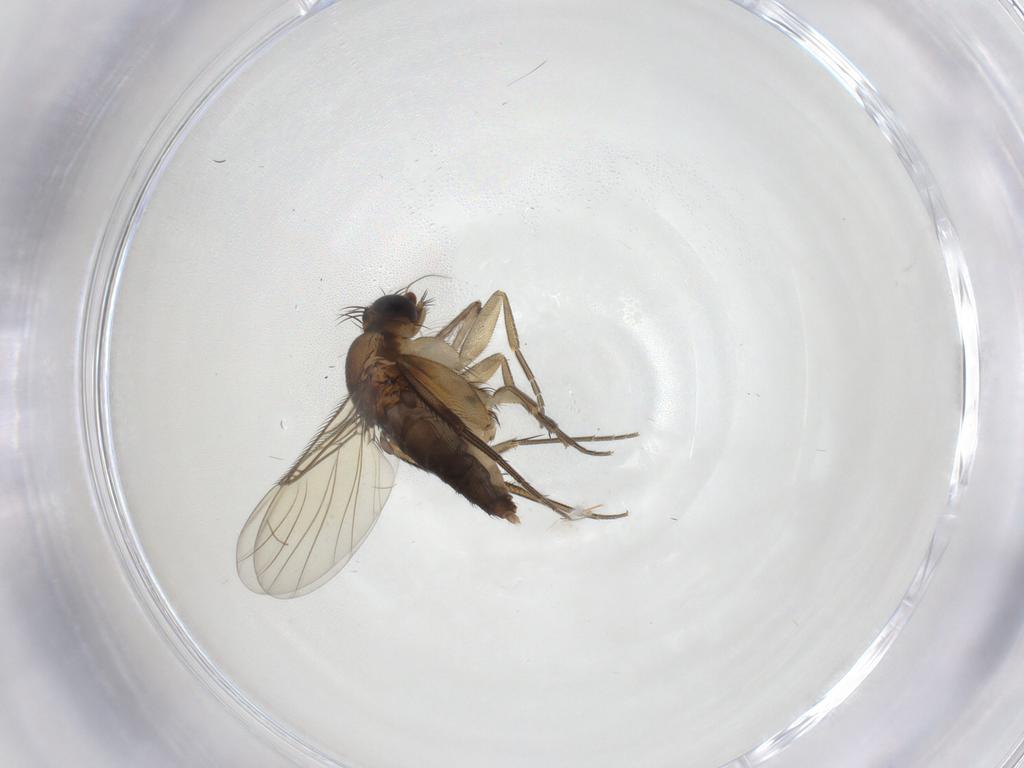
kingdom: Animalia
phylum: Arthropoda
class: Insecta
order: Diptera
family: Phoridae
